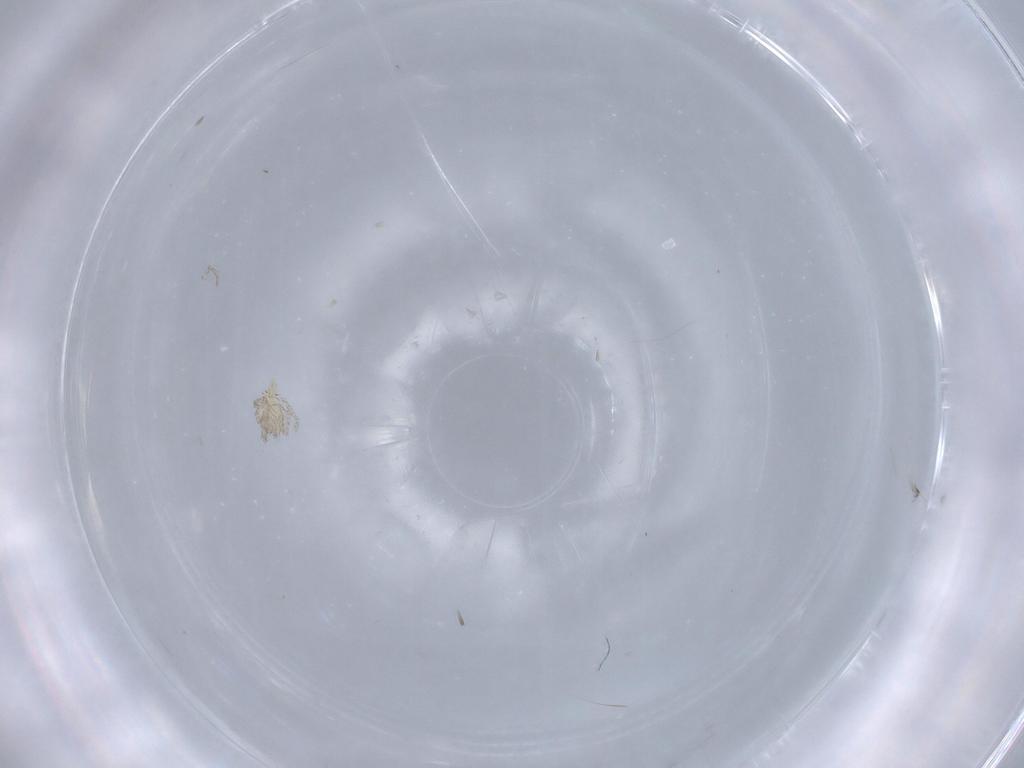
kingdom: Animalia
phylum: Arthropoda
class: Arachnida
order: Trombidiformes
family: Erythraeidae
